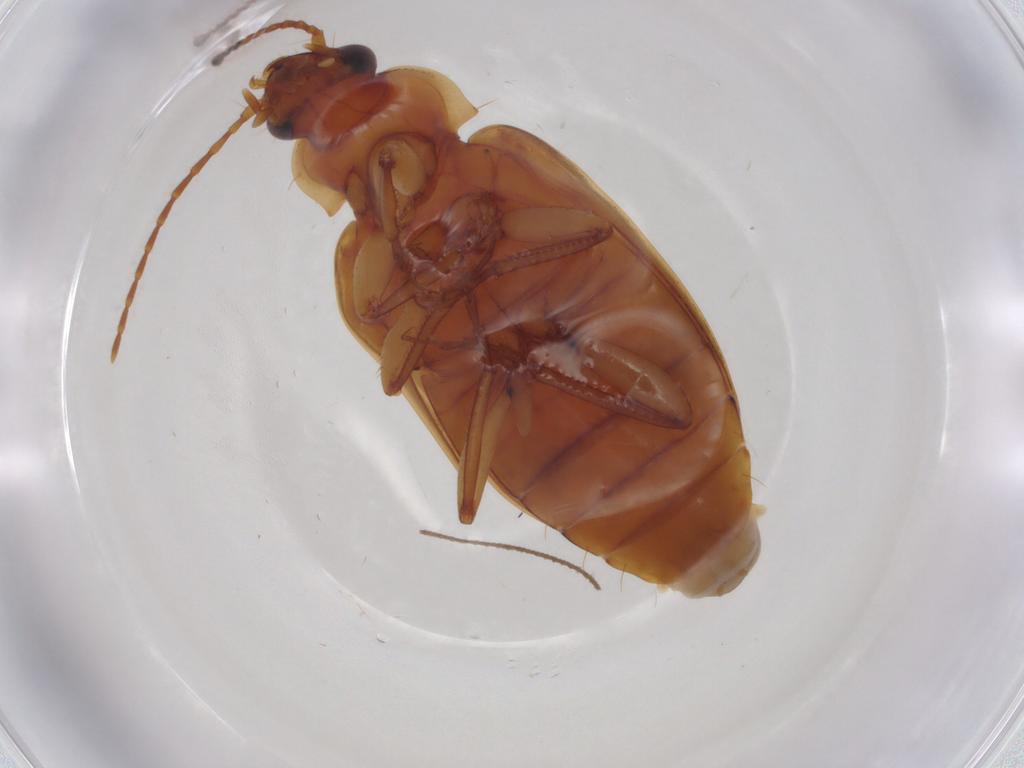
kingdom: Animalia
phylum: Arthropoda
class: Insecta
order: Coleoptera
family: Carabidae
